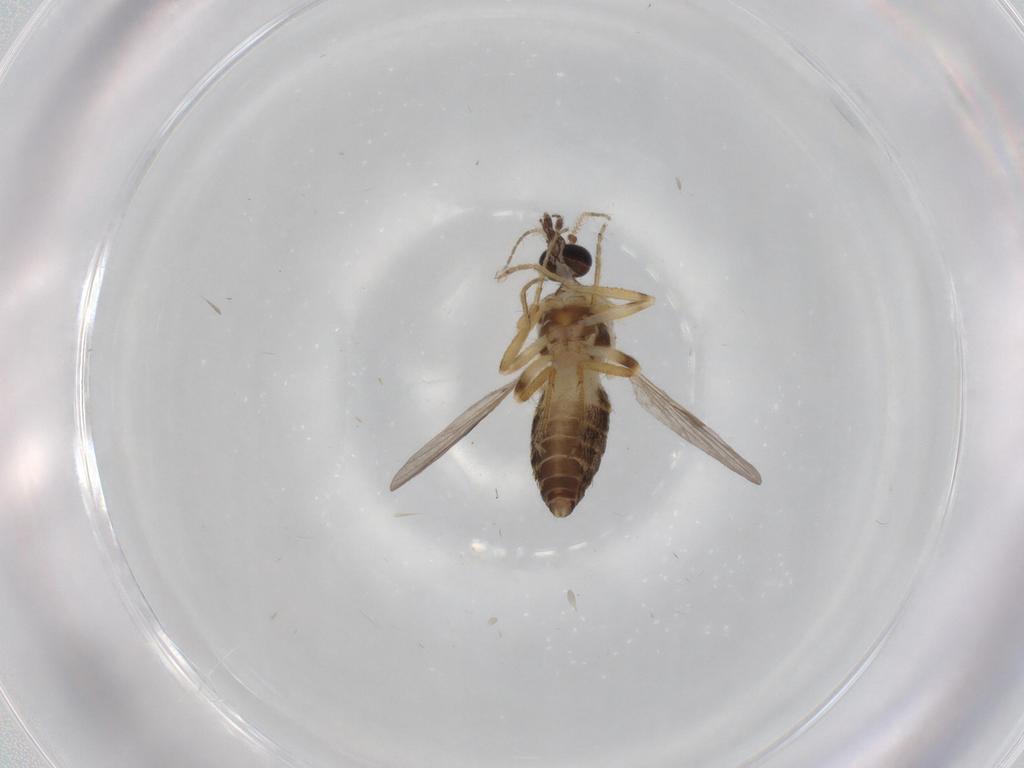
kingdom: Animalia
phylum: Arthropoda
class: Insecta
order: Diptera
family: Ceratopogonidae
